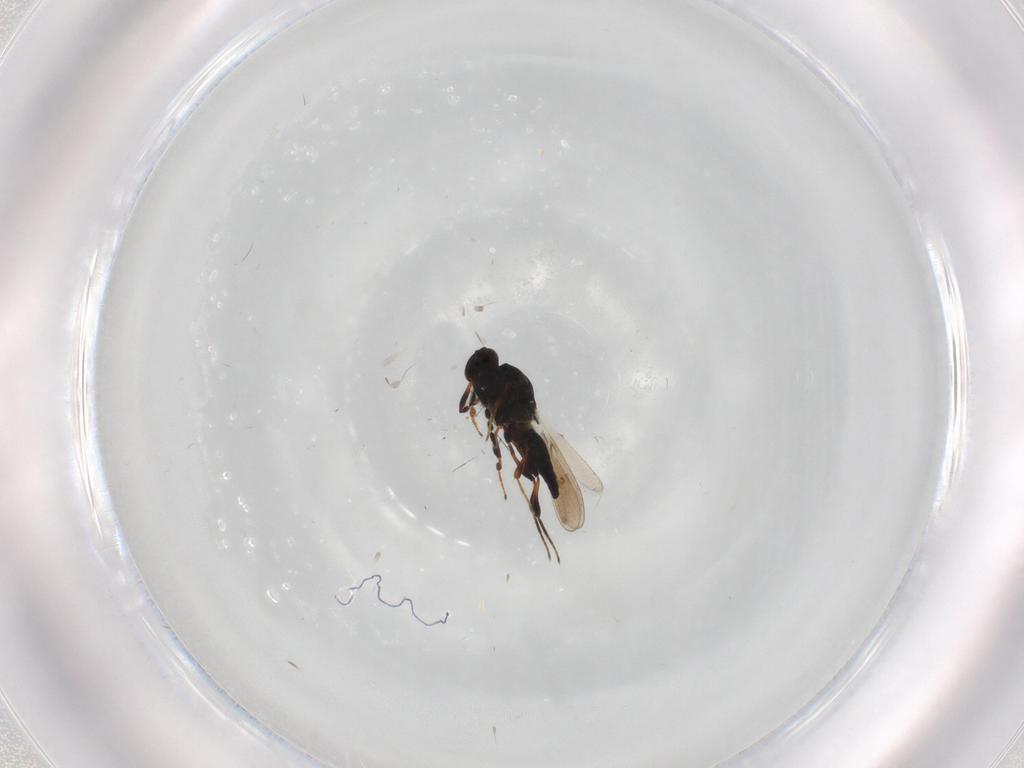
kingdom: Animalia
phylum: Arthropoda
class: Insecta
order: Hymenoptera
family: Platygastridae
